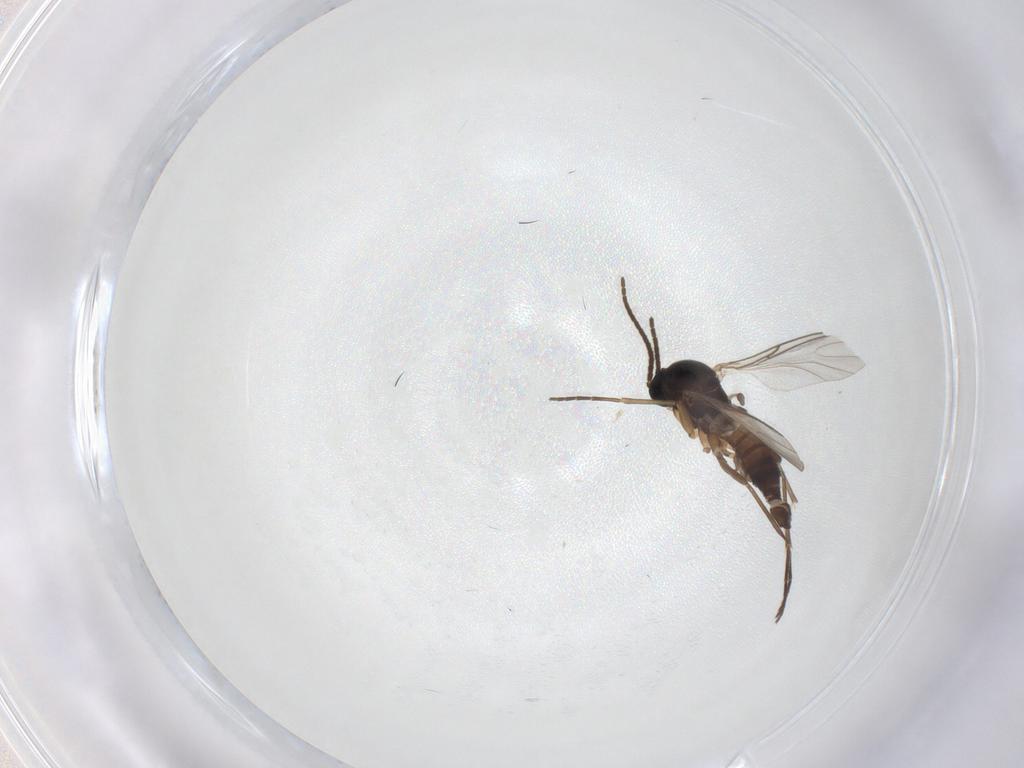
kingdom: Animalia
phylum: Arthropoda
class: Insecta
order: Diptera
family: Sciaridae
